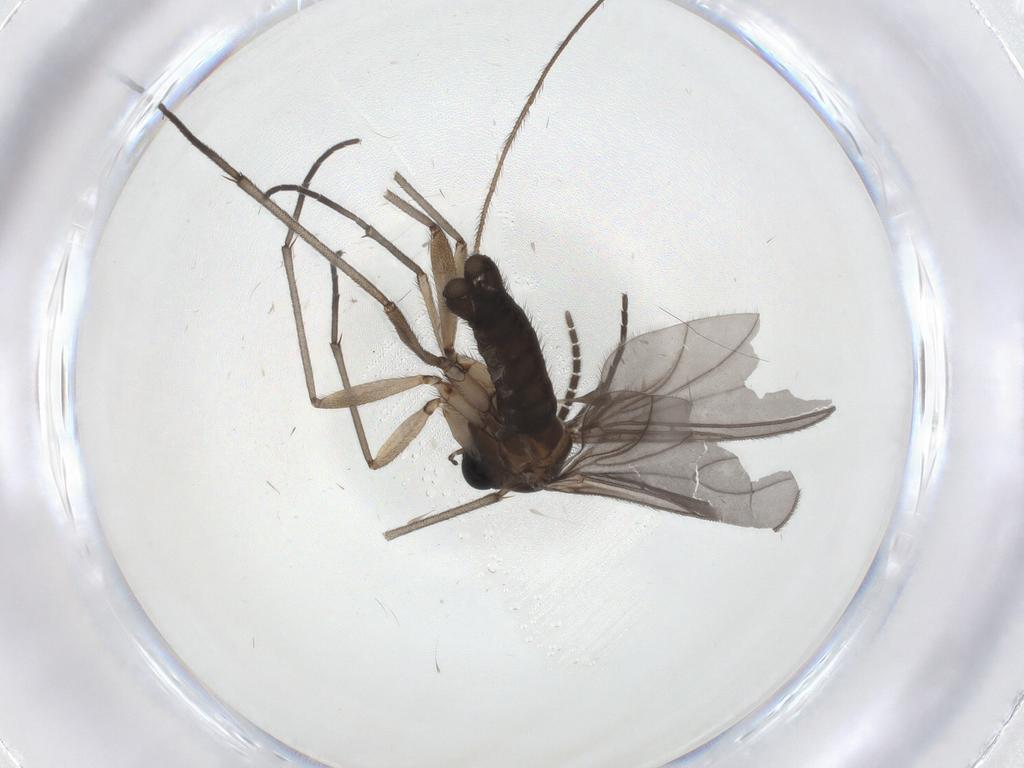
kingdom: Animalia
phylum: Arthropoda
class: Insecta
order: Diptera
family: Sciaridae
